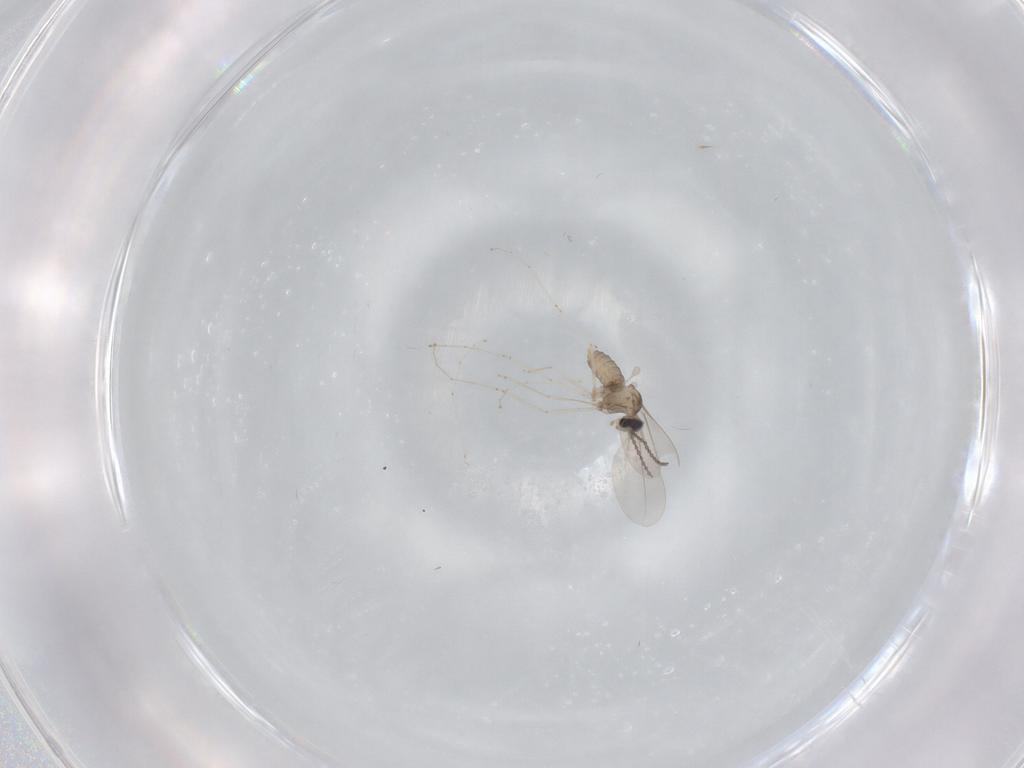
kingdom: Animalia
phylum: Arthropoda
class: Insecta
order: Diptera
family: Cecidomyiidae
